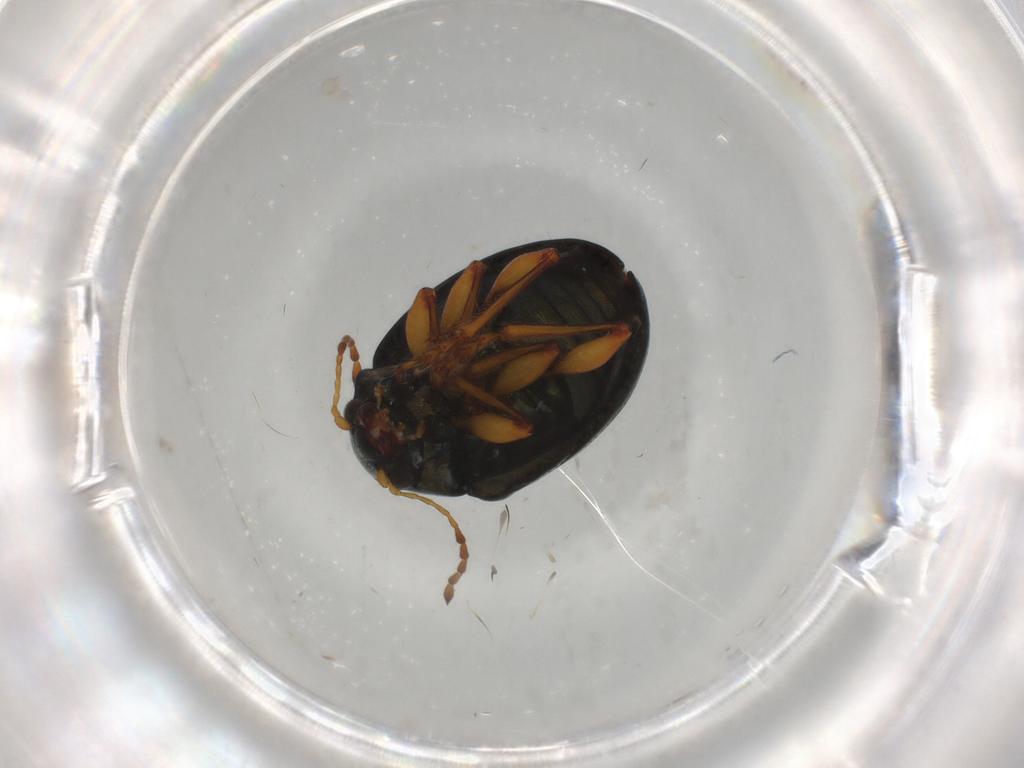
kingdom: Animalia
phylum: Arthropoda
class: Insecta
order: Coleoptera
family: Chrysomelidae
